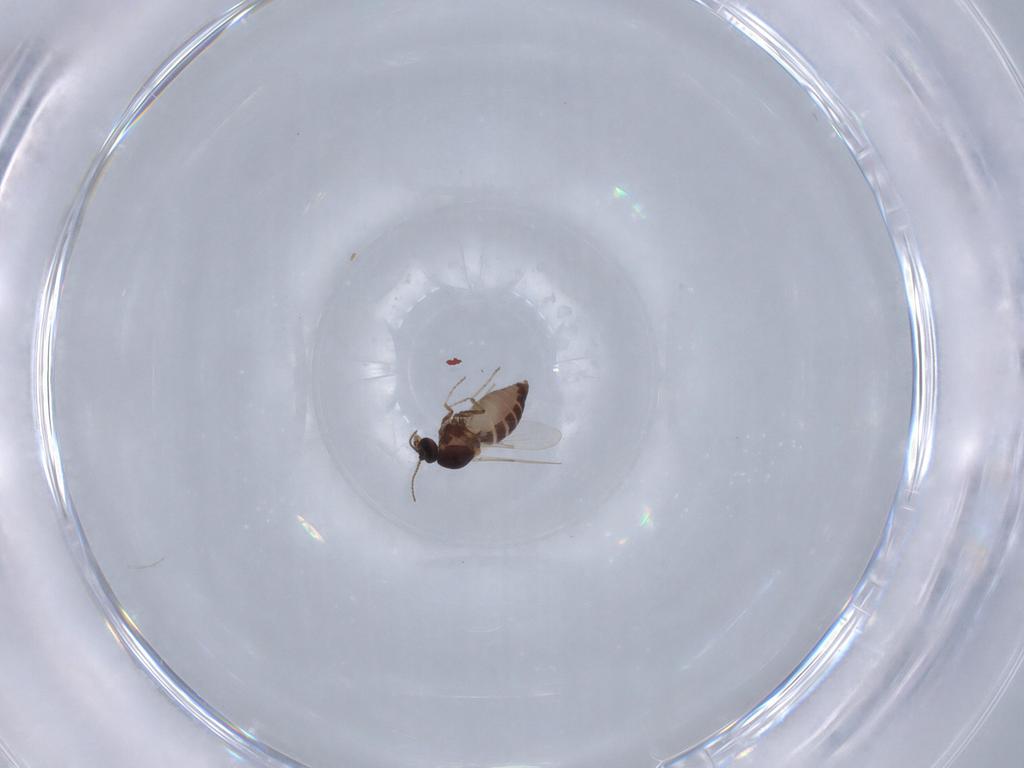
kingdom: Animalia
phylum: Arthropoda
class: Insecta
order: Diptera
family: Ceratopogonidae
